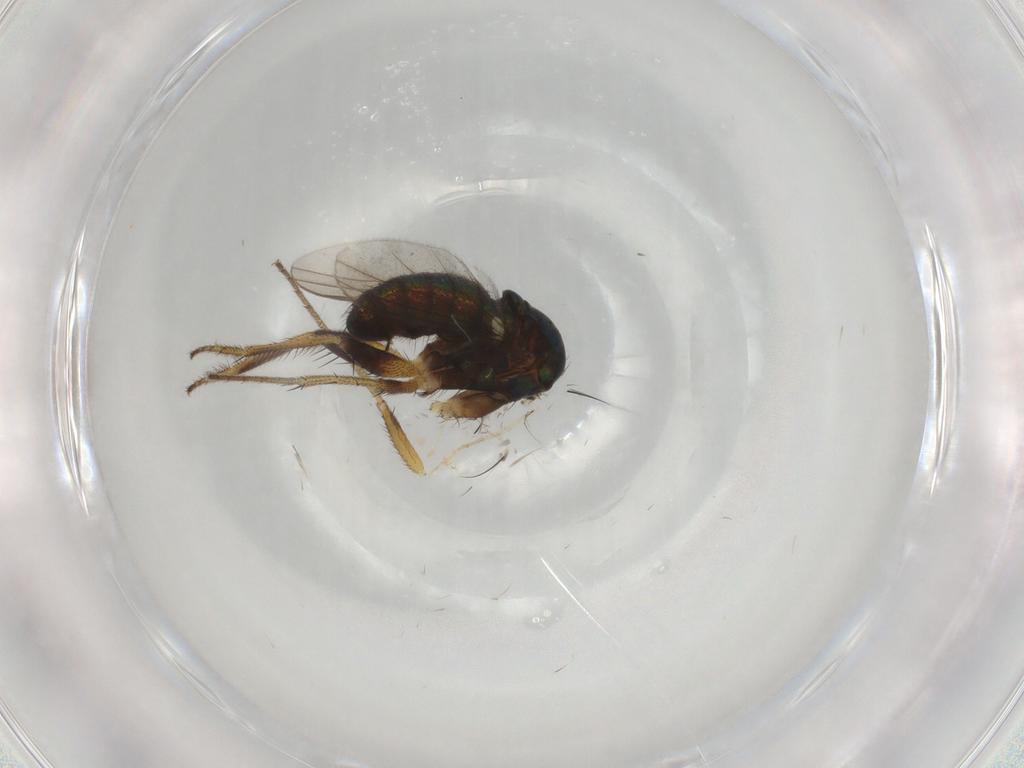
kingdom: Animalia
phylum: Arthropoda
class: Insecta
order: Diptera
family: Dolichopodidae
